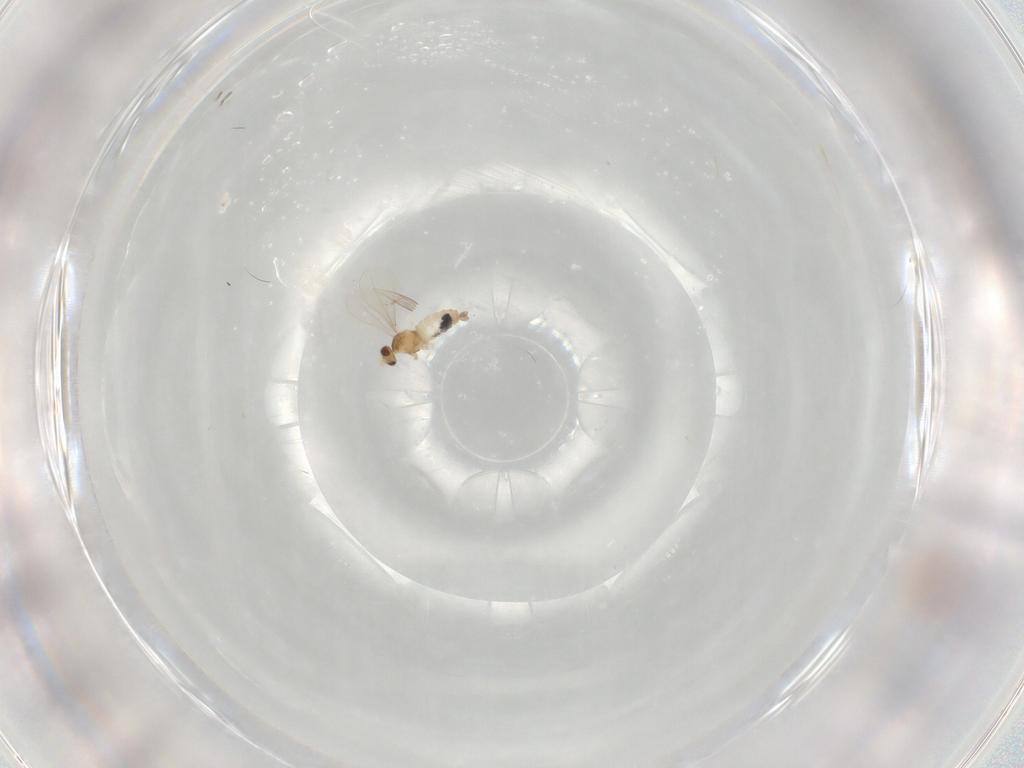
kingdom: Animalia
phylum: Arthropoda
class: Insecta
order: Diptera
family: Cecidomyiidae
